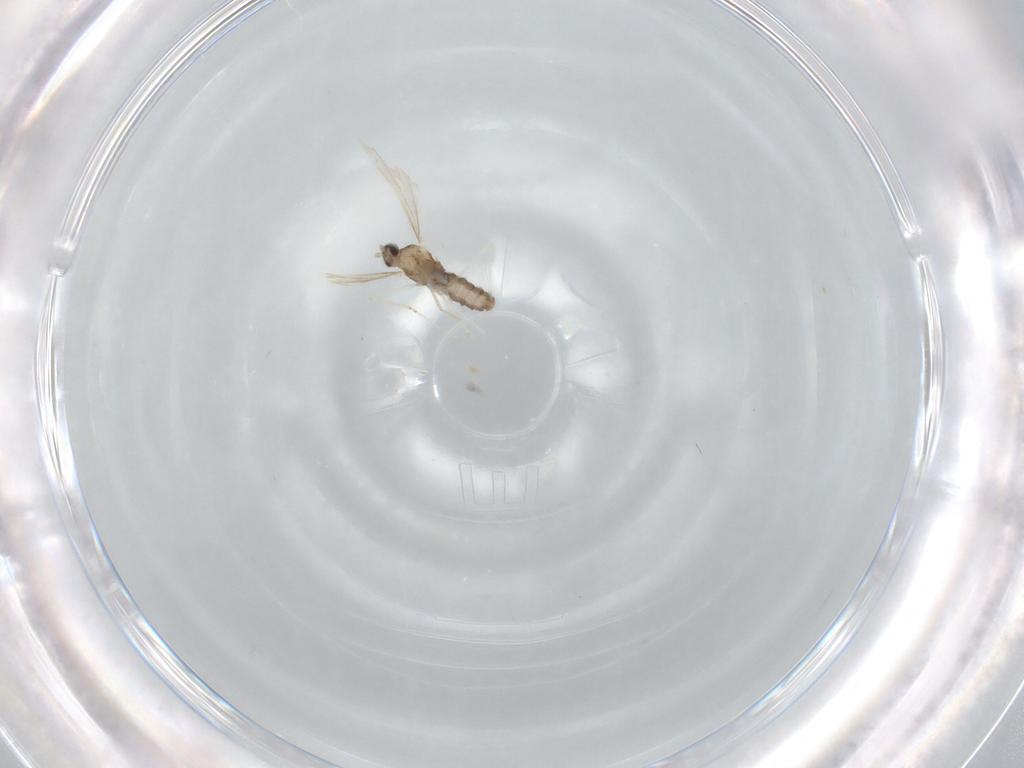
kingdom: Animalia
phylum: Arthropoda
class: Insecta
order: Diptera
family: Cecidomyiidae
